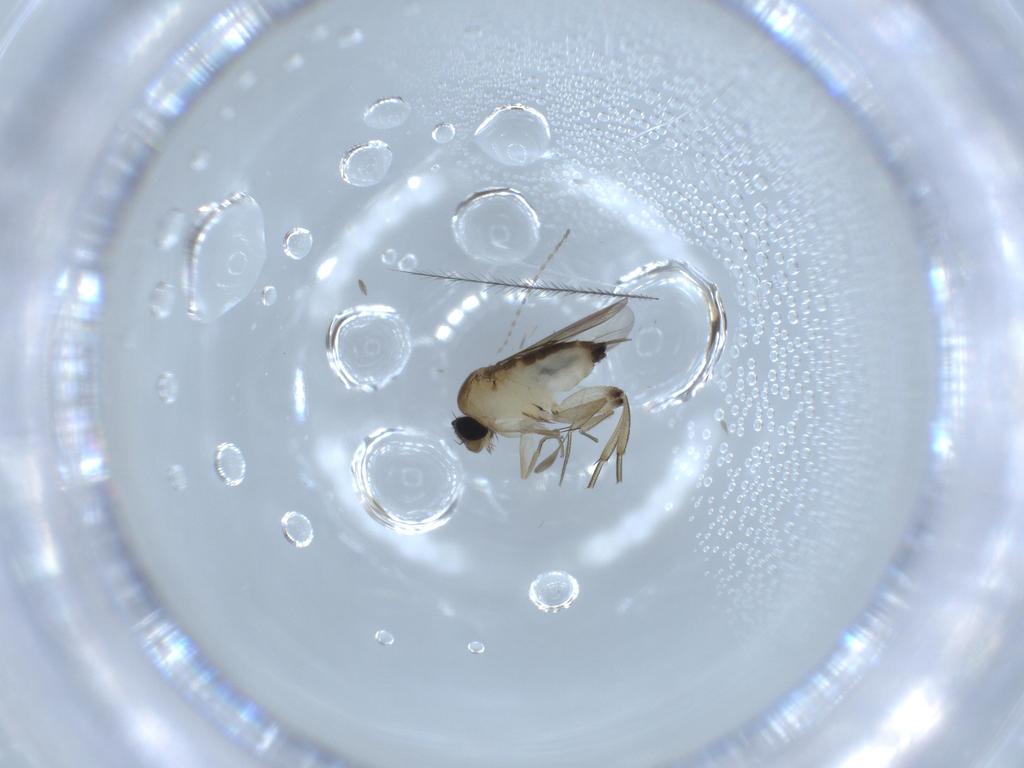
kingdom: Animalia
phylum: Arthropoda
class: Insecta
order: Diptera
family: Phoridae
